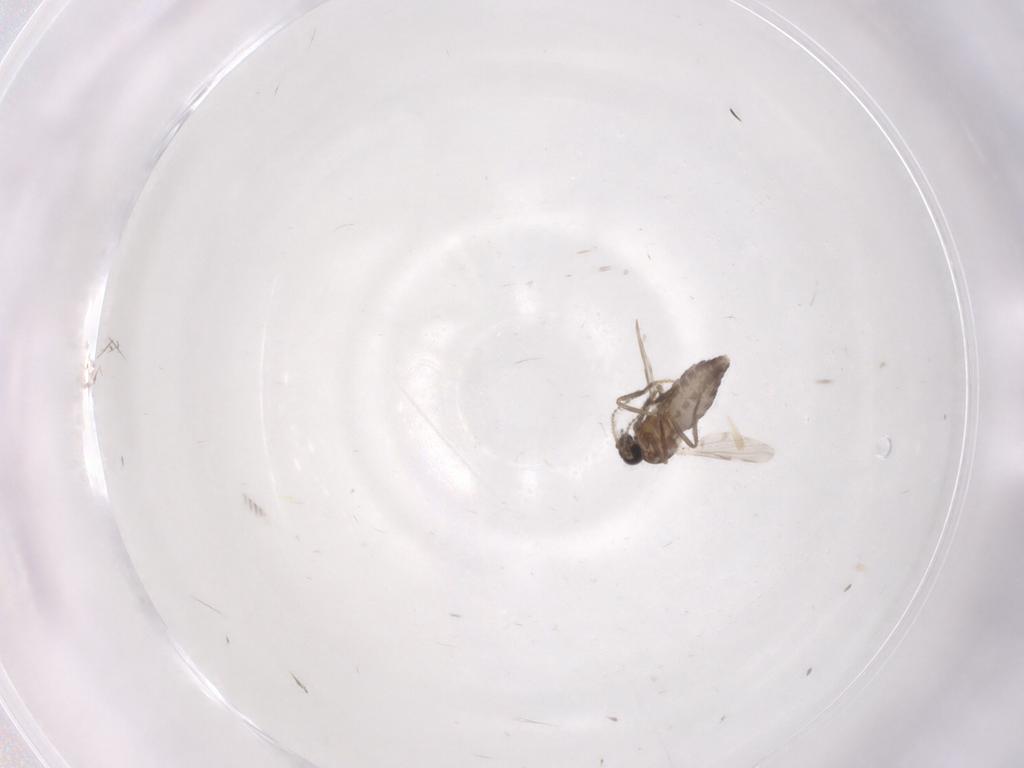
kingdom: Animalia
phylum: Arthropoda
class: Insecta
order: Diptera
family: Ceratopogonidae
